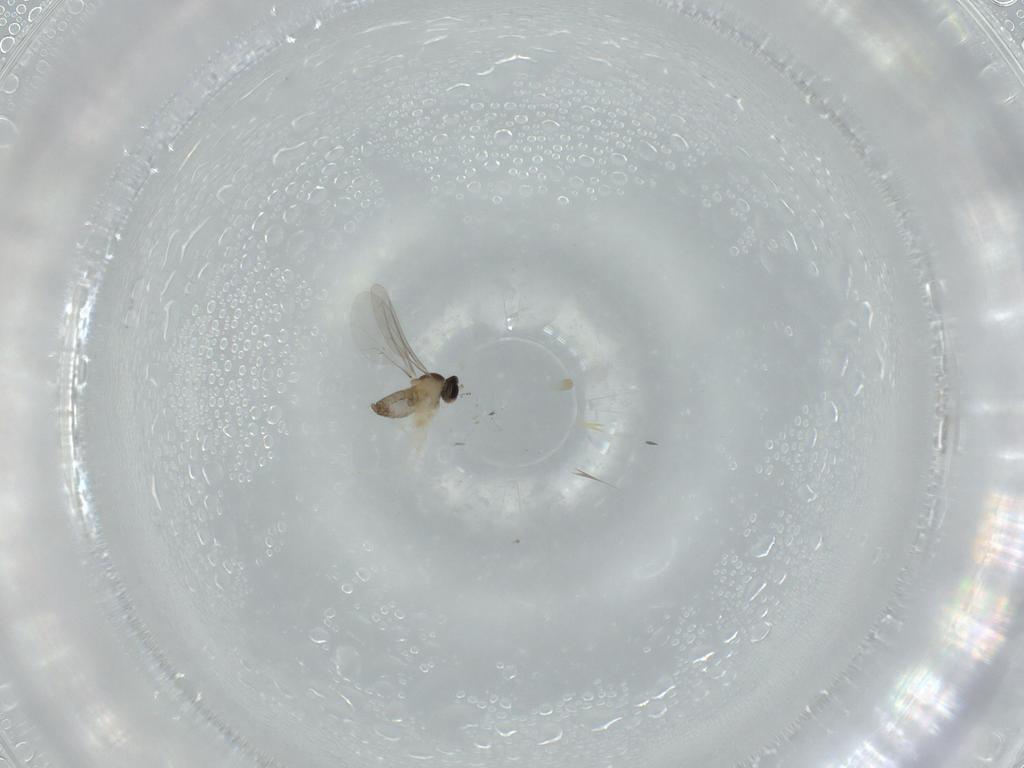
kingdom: Animalia
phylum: Arthropoda
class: Insecta
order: Diptera
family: Cecidomyiidae
